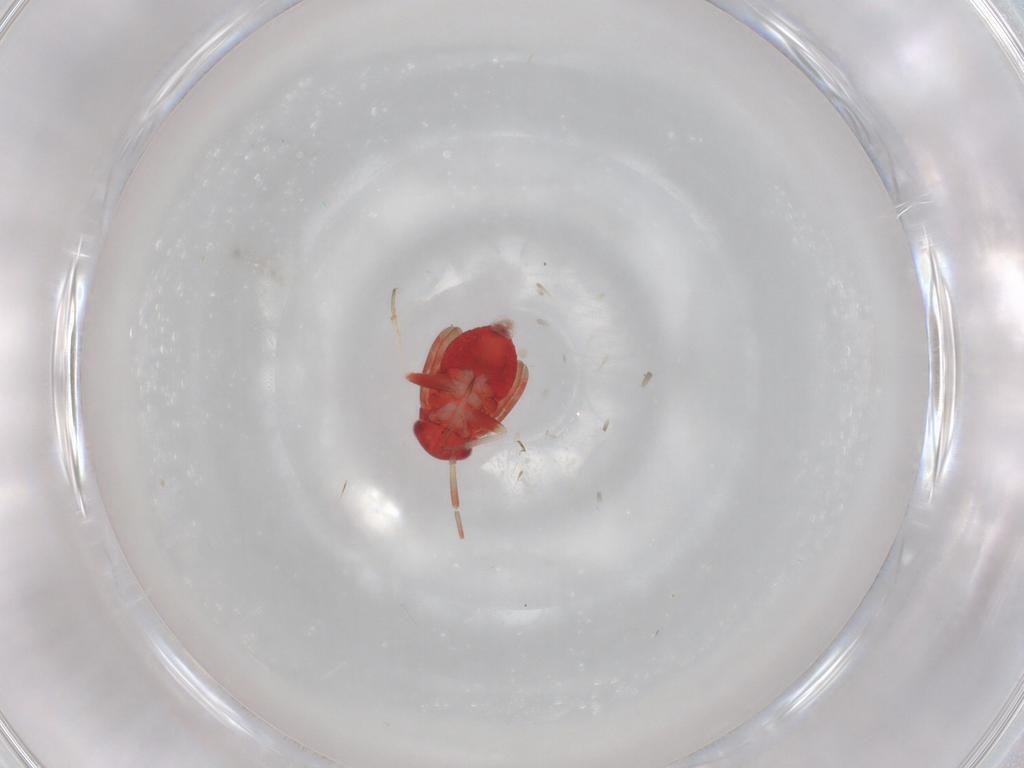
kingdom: Animalia
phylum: Arthropoda
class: Insecta
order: Hemiptera
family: Miridae
